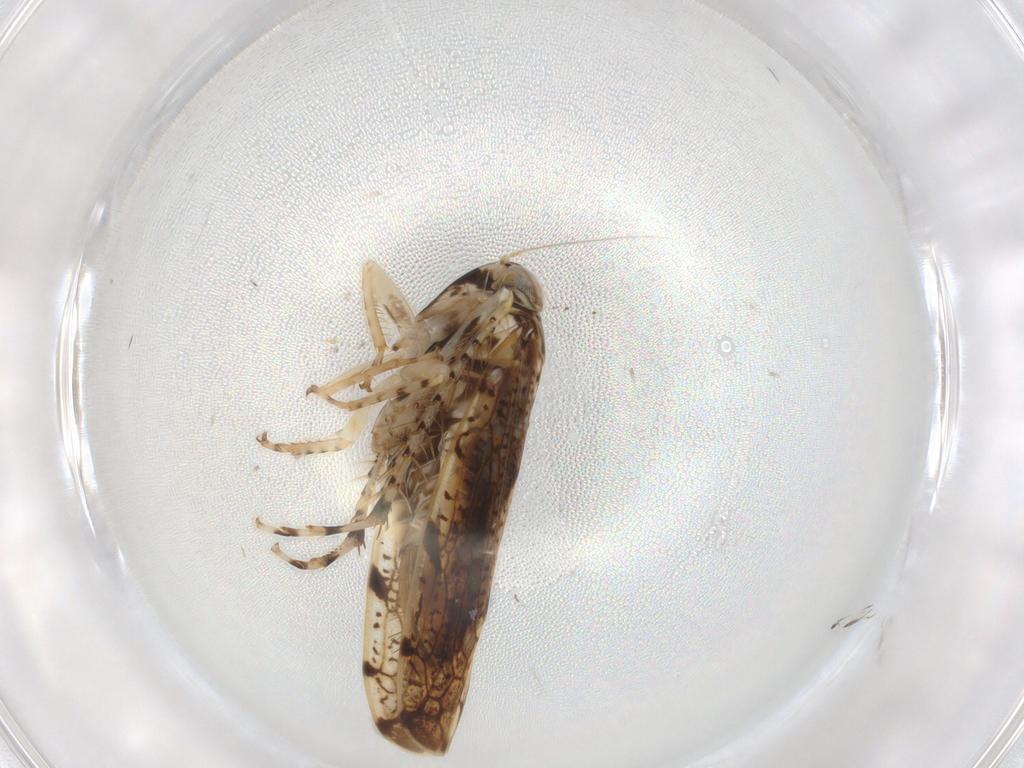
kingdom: Animalia
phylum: Arthropoda
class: Insecta
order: Hemiptera
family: Cicadellidae
